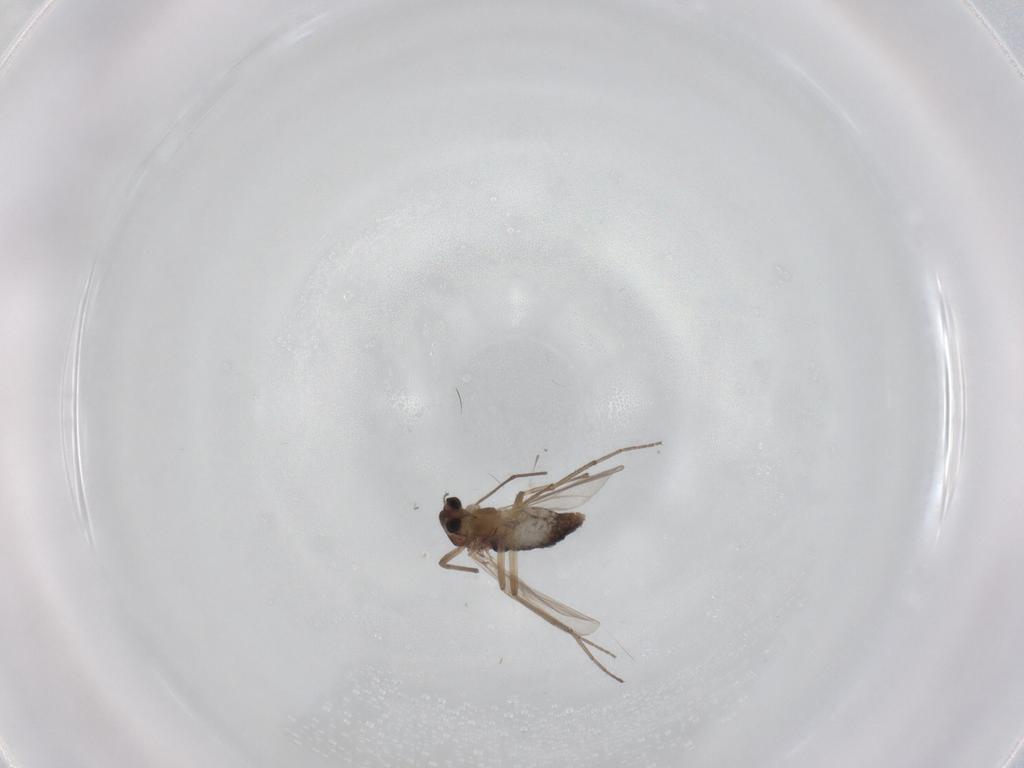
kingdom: Animalia
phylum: Arthropoda
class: Insecta
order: Diptera
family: Chironomidae
